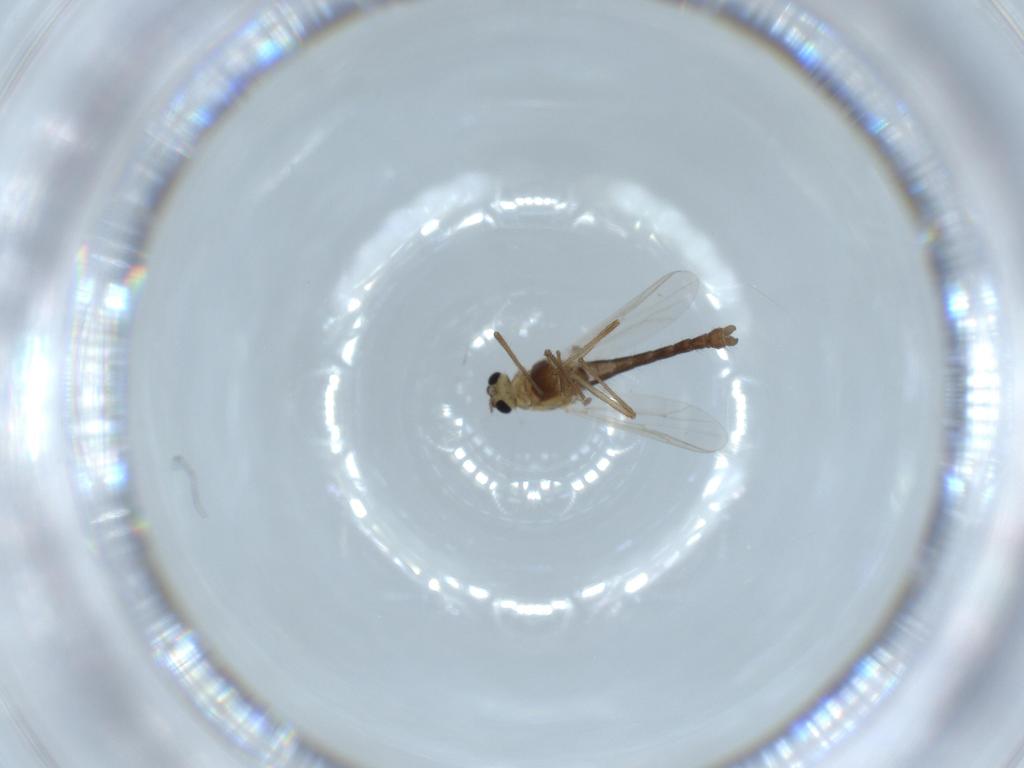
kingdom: Animalia
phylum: Arthropoda
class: Insecta
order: Diptera
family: Chironomidae
